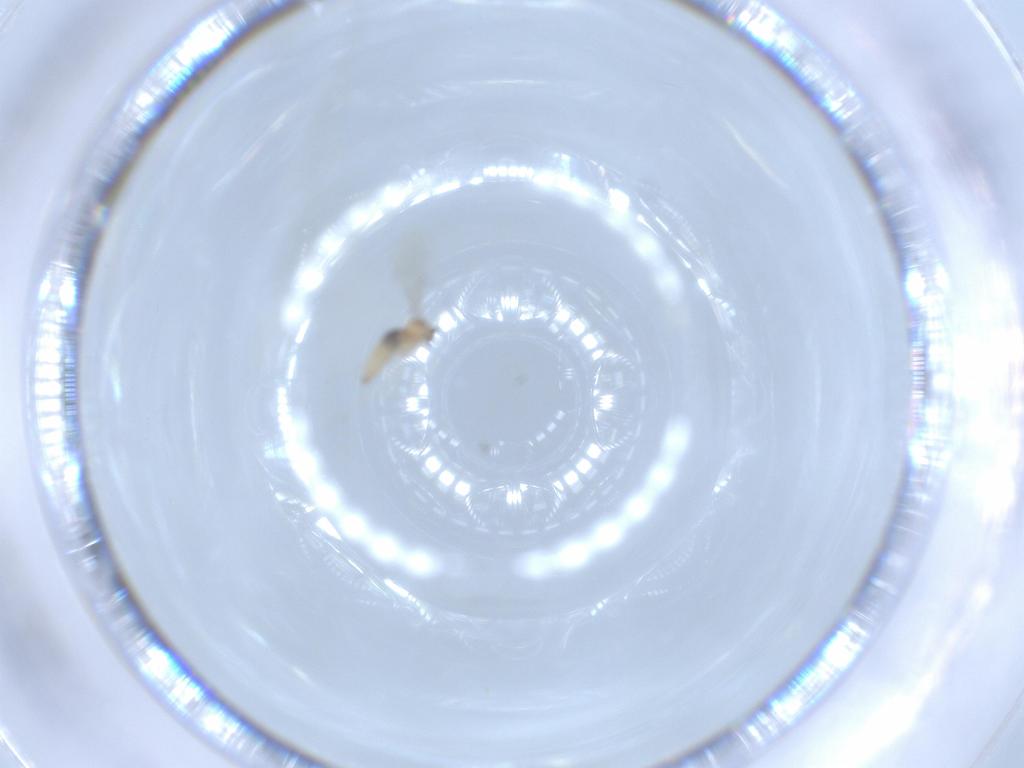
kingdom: Animalia
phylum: Arthropoda
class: Insecta
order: Diptera
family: Cecidomyiidae
